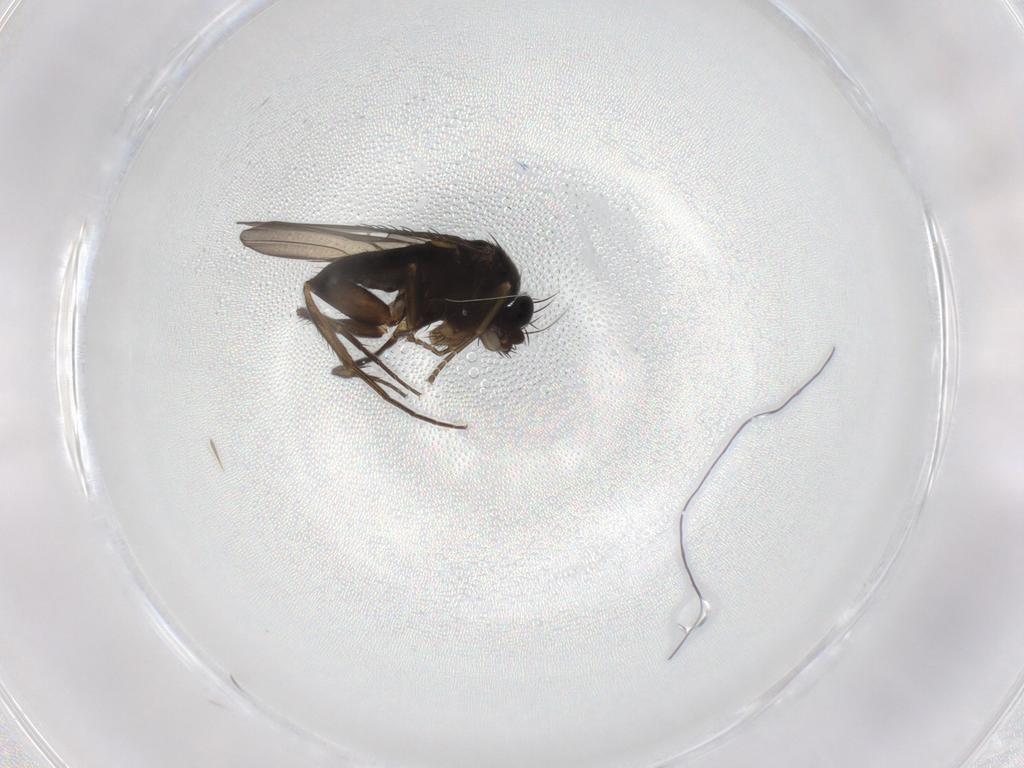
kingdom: Animalia
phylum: Arthropoda
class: Insecta
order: Diptera
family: Phoridae
